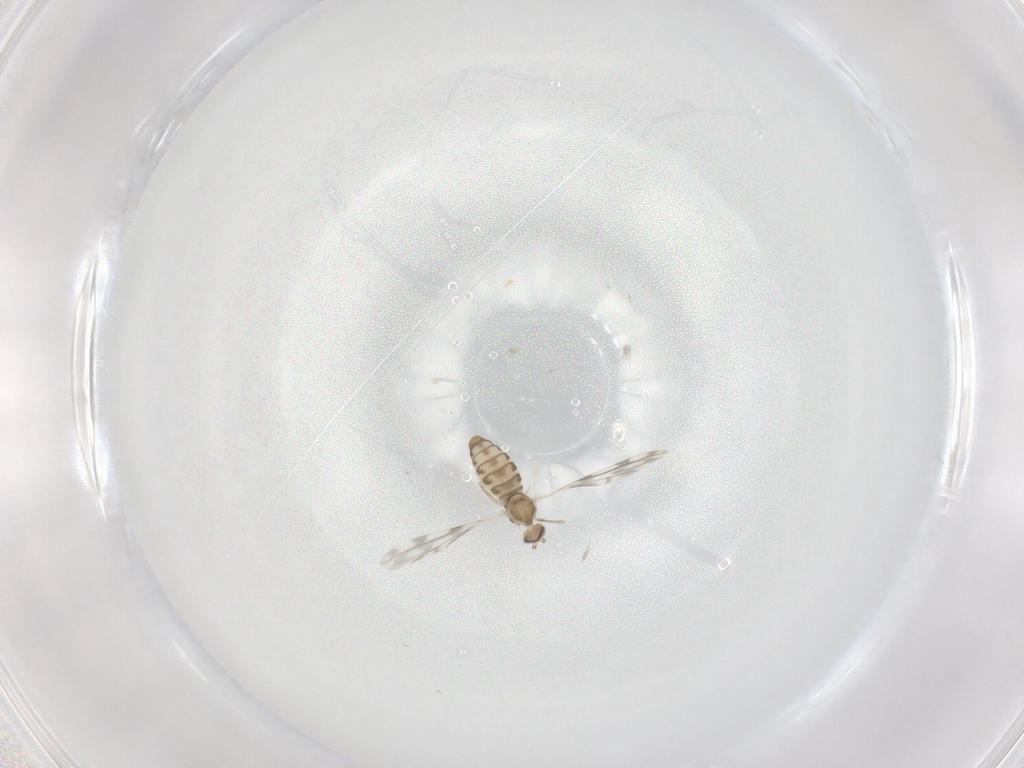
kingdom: Animalia
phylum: Arthropoda
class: Insecta
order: Diptera
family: Cecidomyiidae
